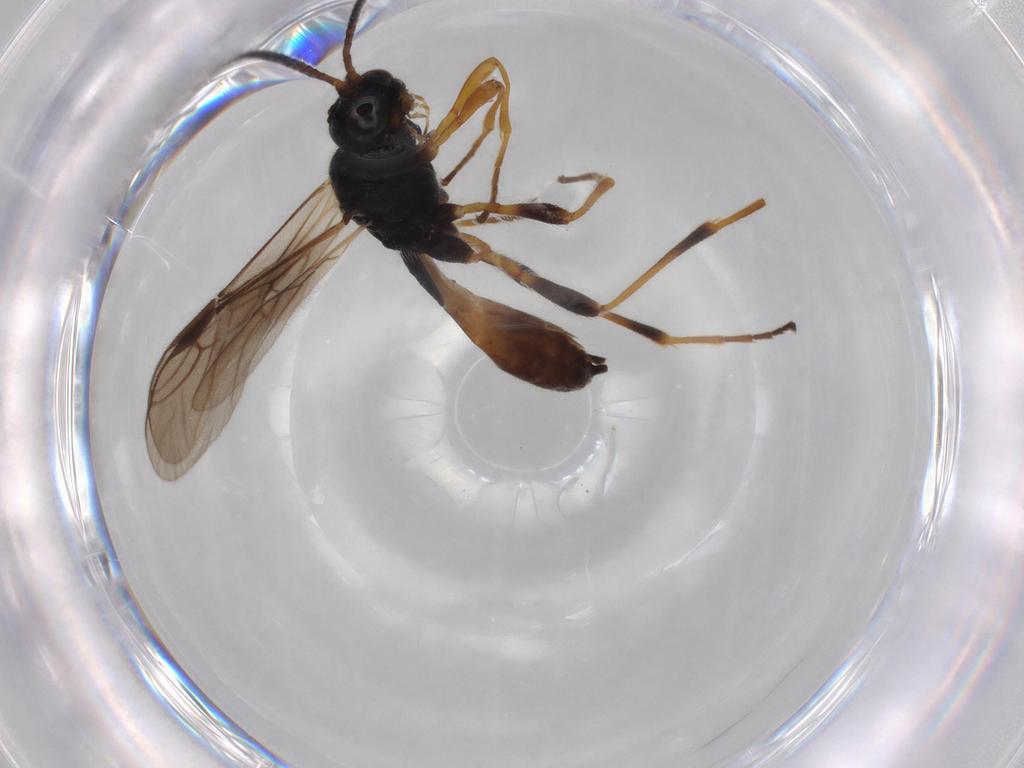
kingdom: Animalia
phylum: Arthropoda
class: Insecta
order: Hymenoptera
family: Braconidae
